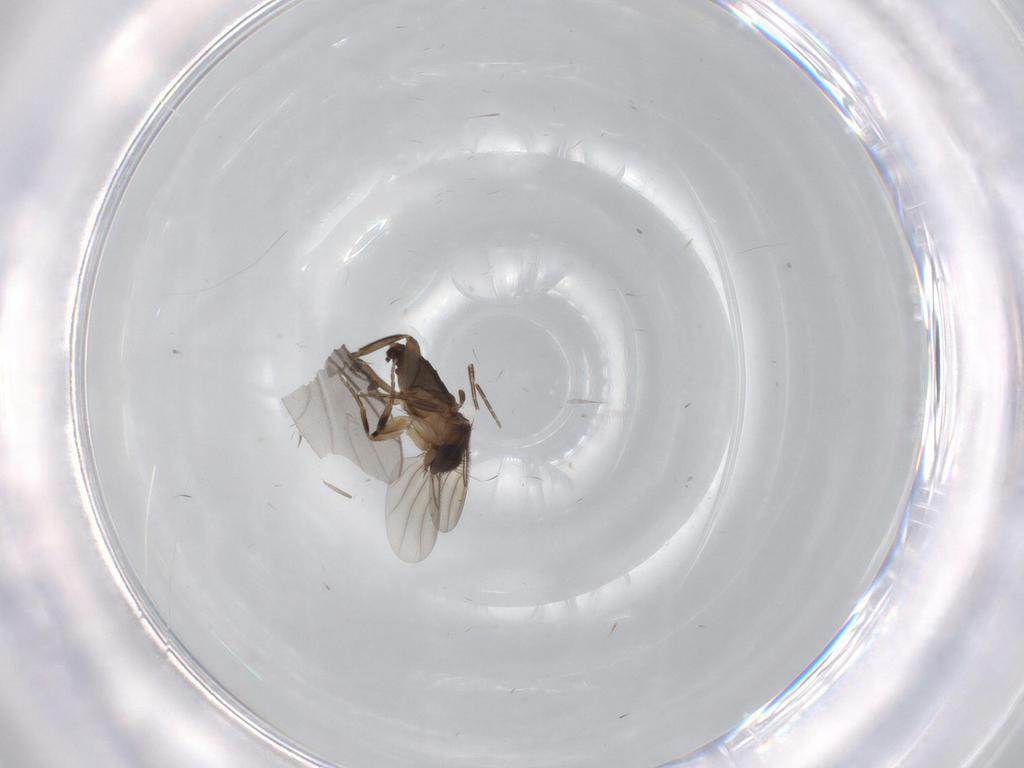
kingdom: Animalia
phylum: Arthropoda
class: Insecta
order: Diptera
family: Phoridae
